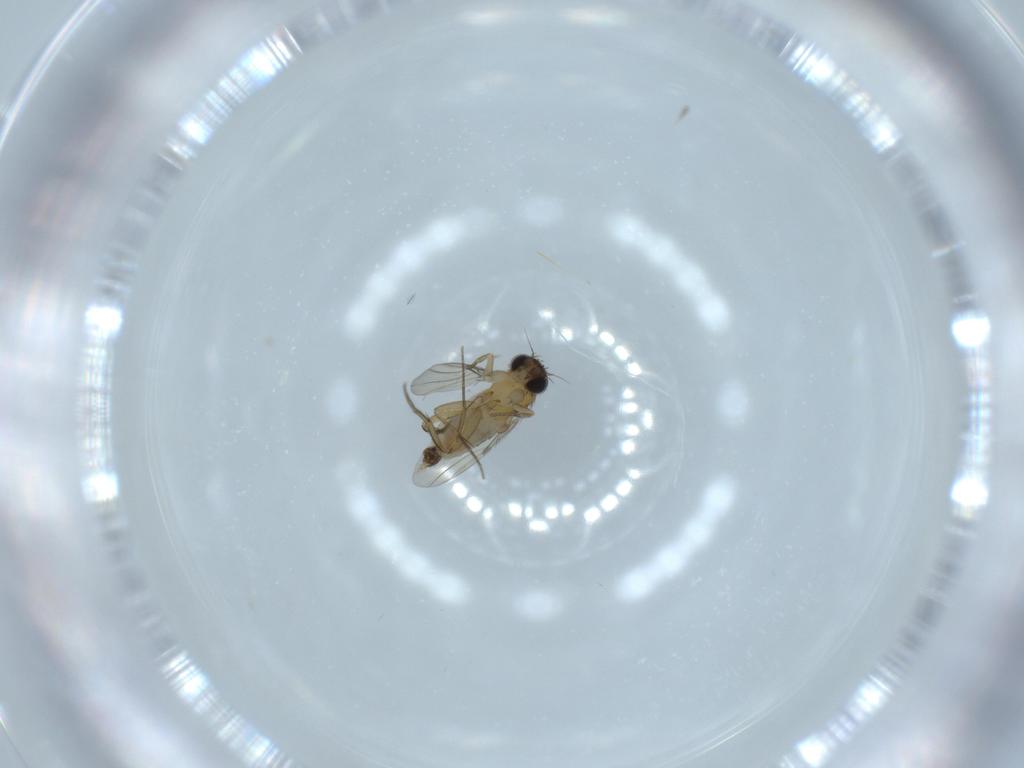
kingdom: Animalia
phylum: Arthropoda
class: Insecta
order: Diptera
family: Phoridae
